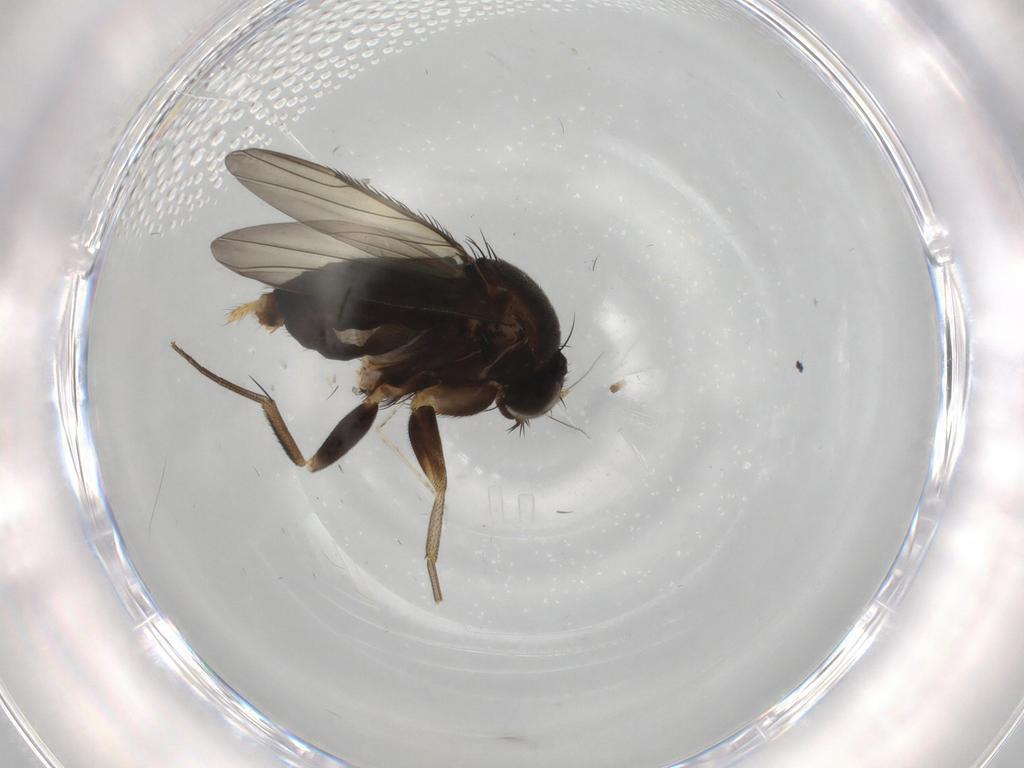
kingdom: Animalia
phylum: Arthropoda
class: Insecta
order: Diptera
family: Phoridae
